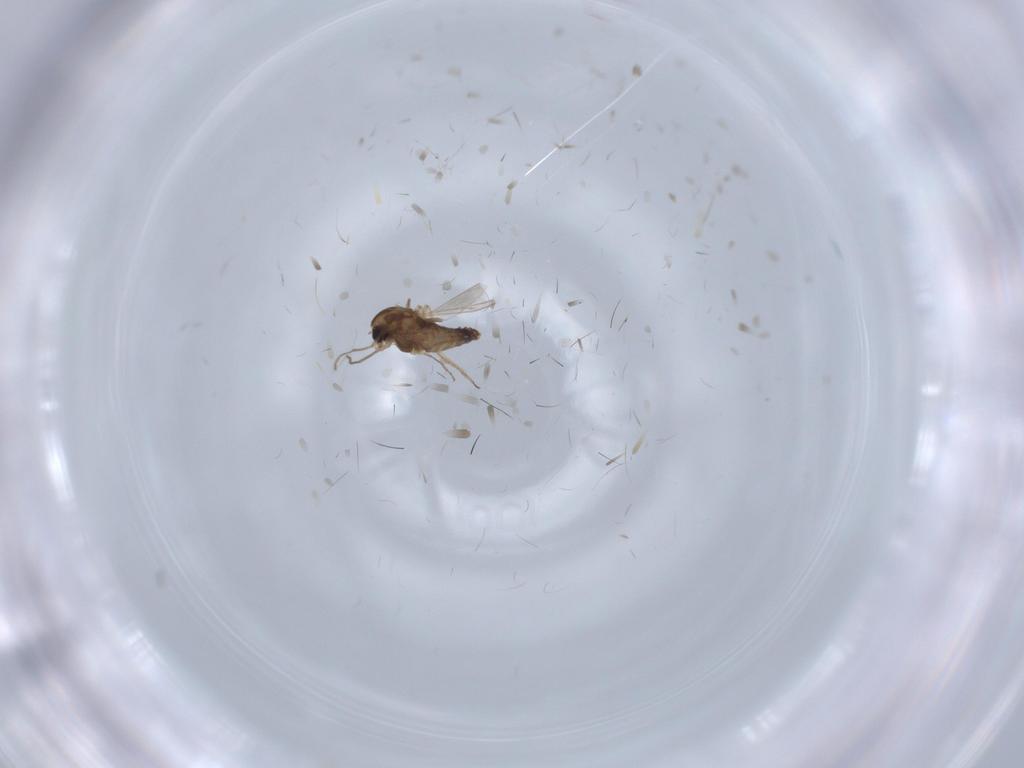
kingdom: Animalia
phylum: Arthropoda
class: Insecta
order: Diptera
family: Chironomidae
